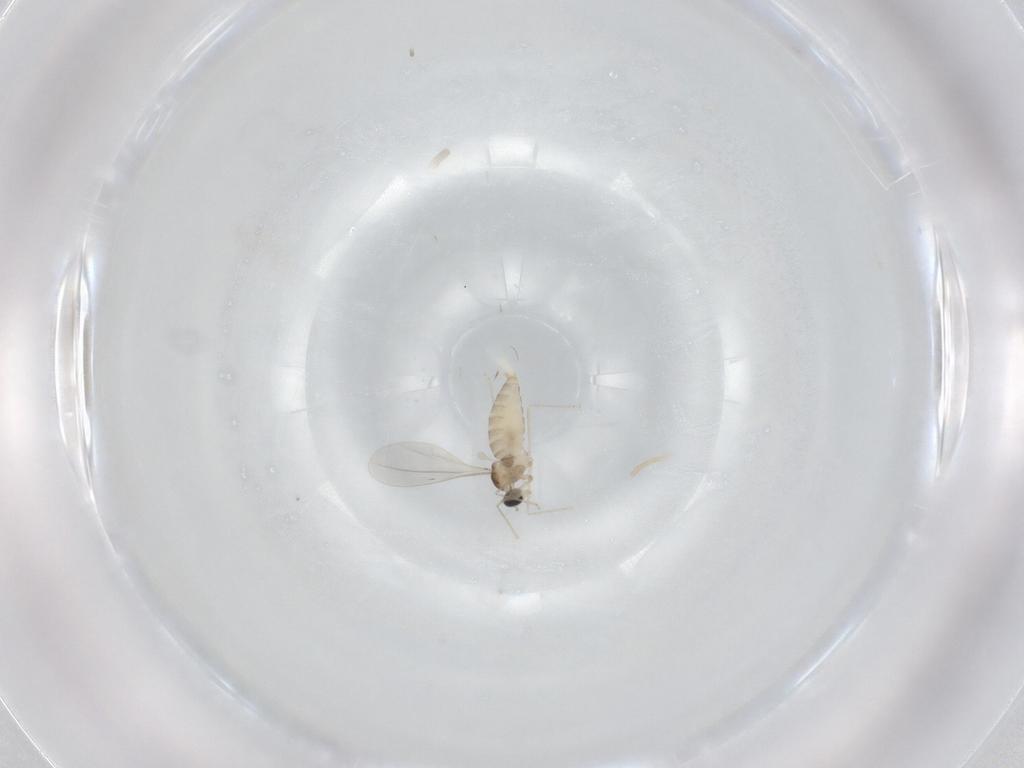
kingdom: Animalia
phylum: Arthropoda
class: Insecta
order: Diptera
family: Cecidomyiidae
